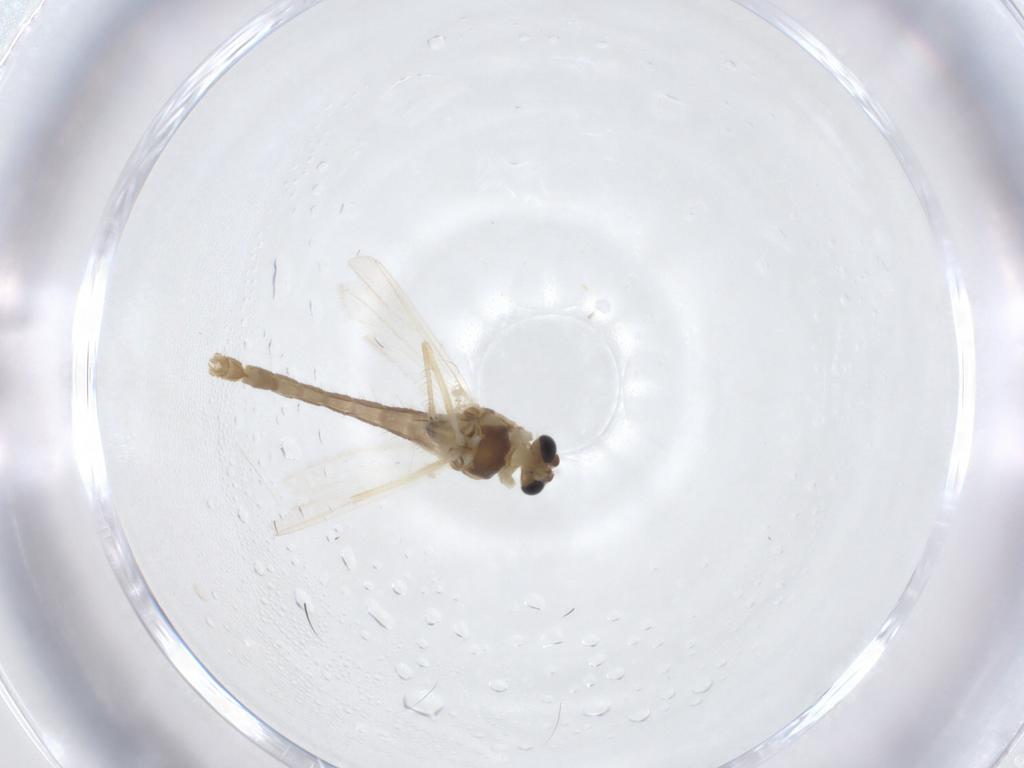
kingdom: Animalia
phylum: Arthropoda
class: Insecta
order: Diptera
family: Chironomidae
